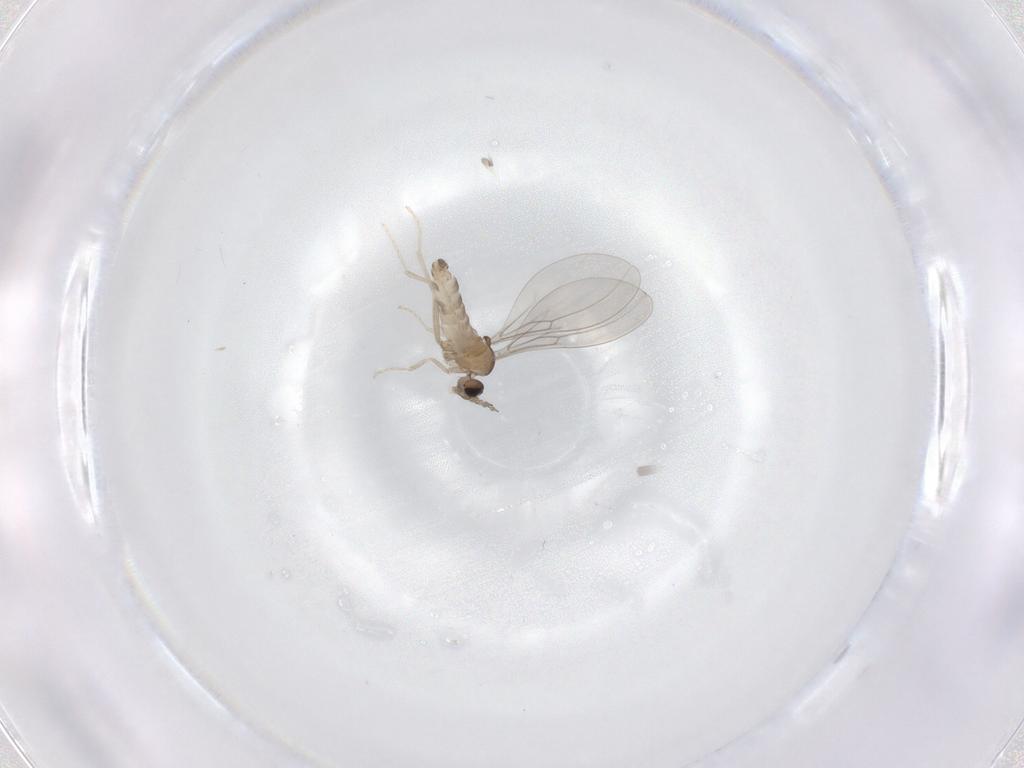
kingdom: Animalia
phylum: Arthropoda
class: Insecta
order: Diptera
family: Cecidomyiidae
